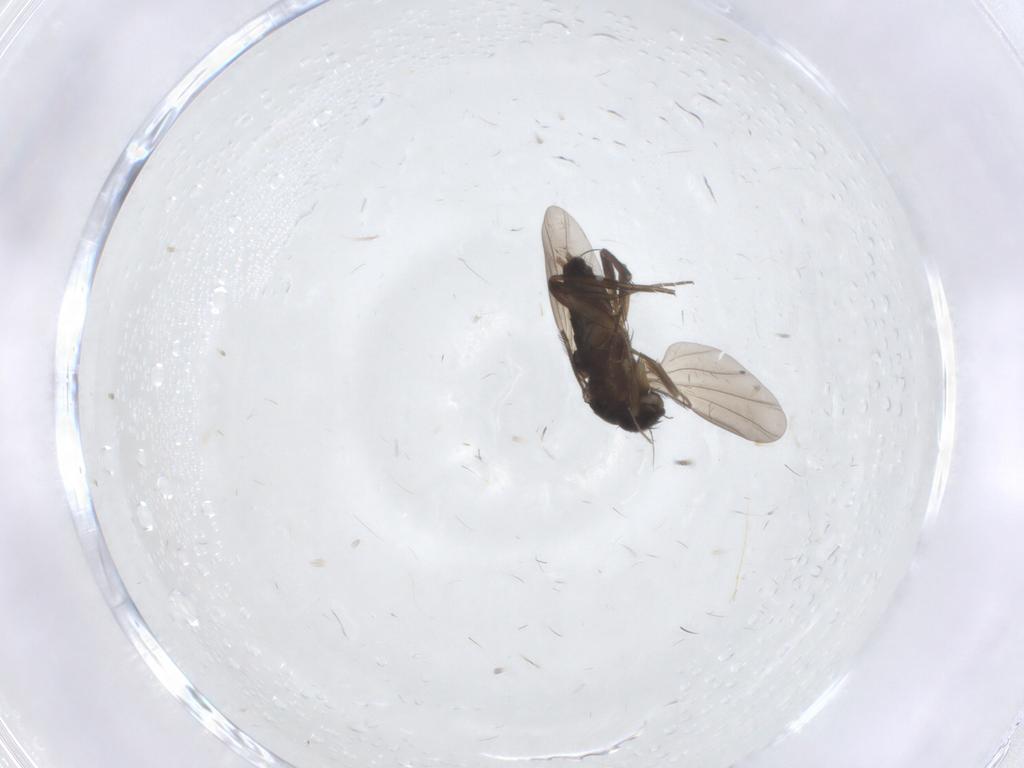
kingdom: Animalia
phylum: Arthropoda
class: Insecta
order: Diptera
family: Phoridae
